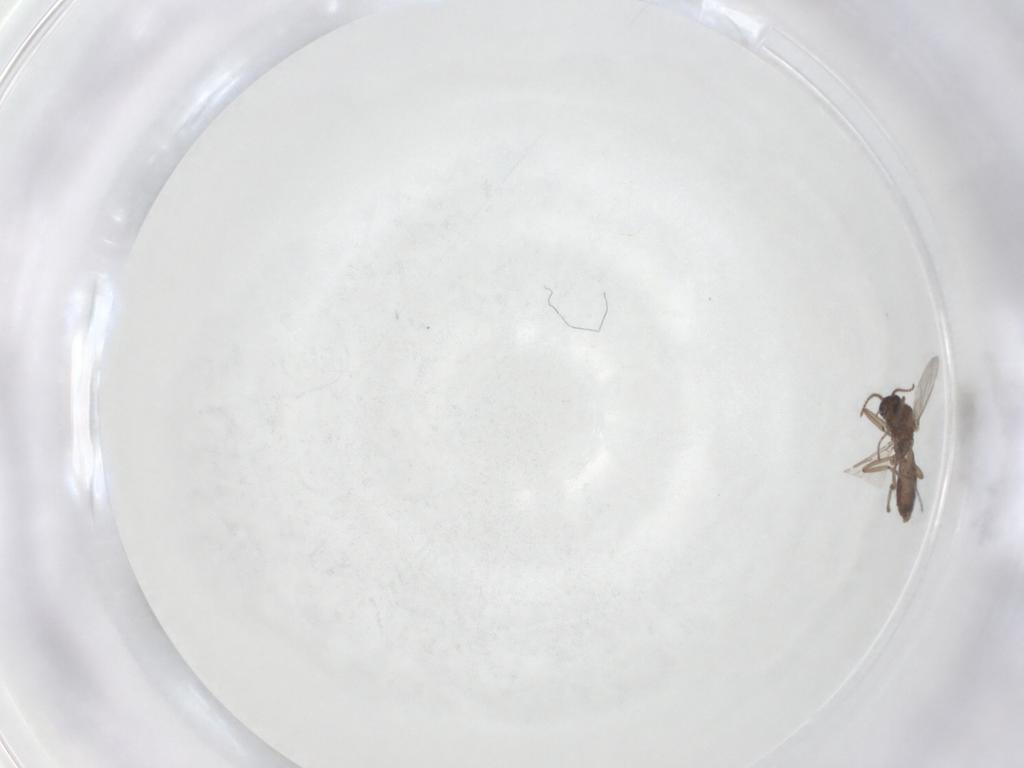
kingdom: Animalia
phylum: Arthropoda
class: Insecta
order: Diptera
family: Ceratopogonidae
